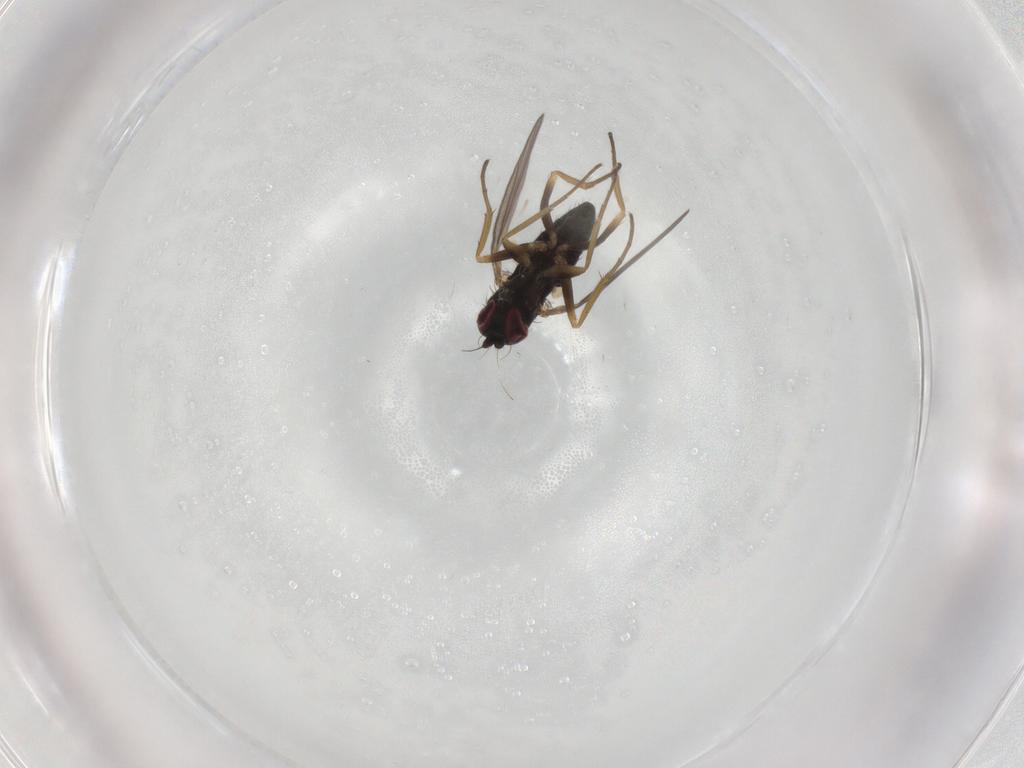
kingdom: Animalia
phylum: Arthropoda
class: Insecta
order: Diptera
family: Dolichopodidae
